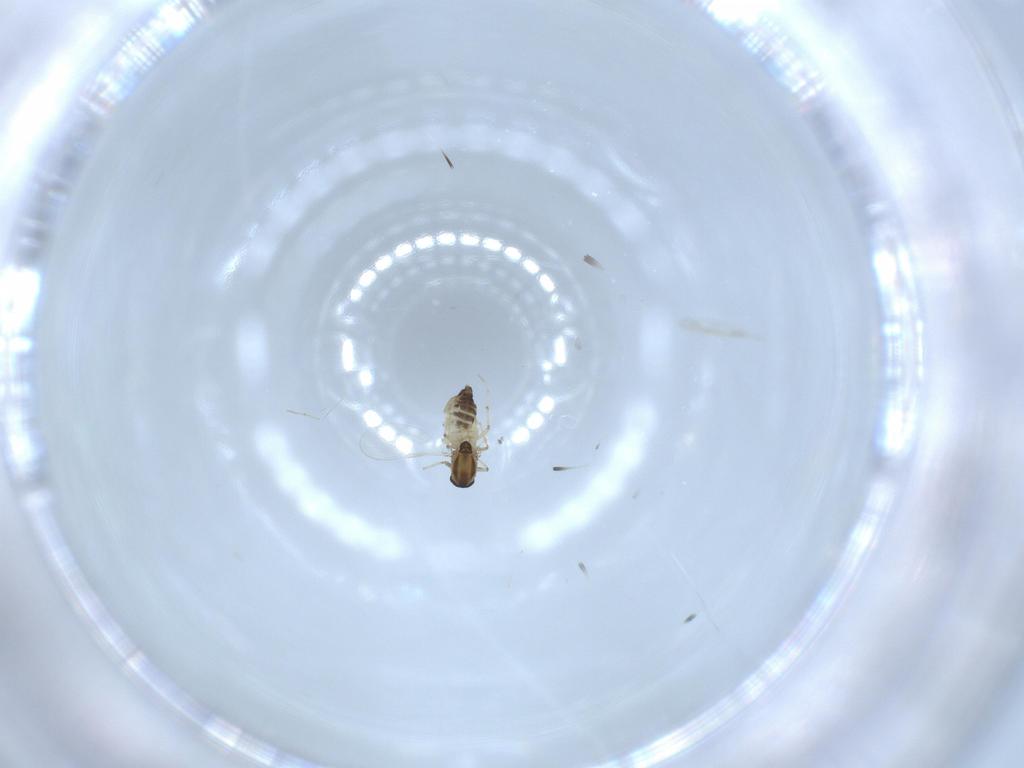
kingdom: Animalia
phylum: Arthropoda
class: Insecta
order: Diptera
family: Chironomidae
